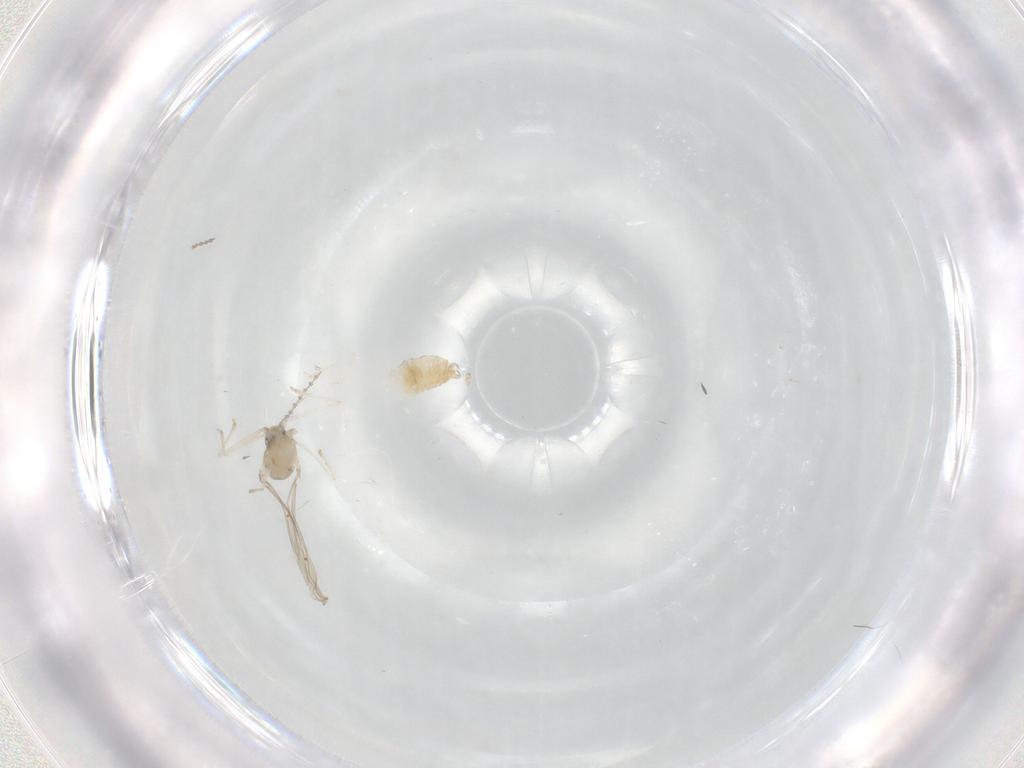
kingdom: Animalia
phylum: Arthropoda
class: Insecta
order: Diptera
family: Cecidomyiidae
